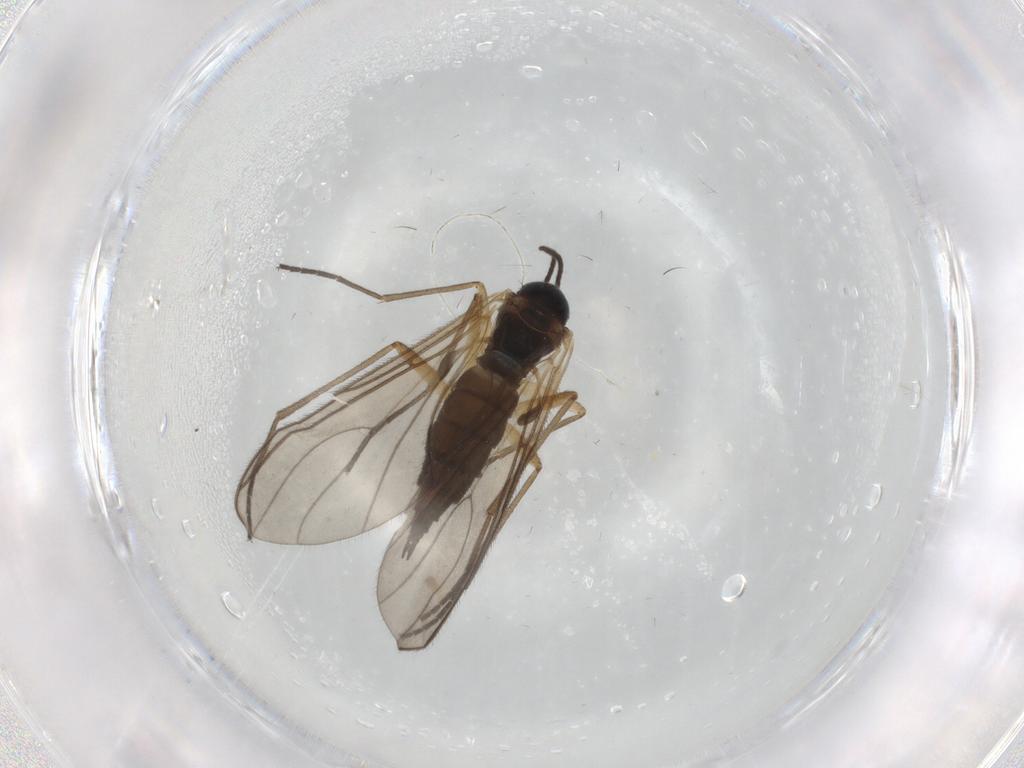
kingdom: Animalia
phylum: Arthropoda
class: Insecta
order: Diptera
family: Sciaridae
